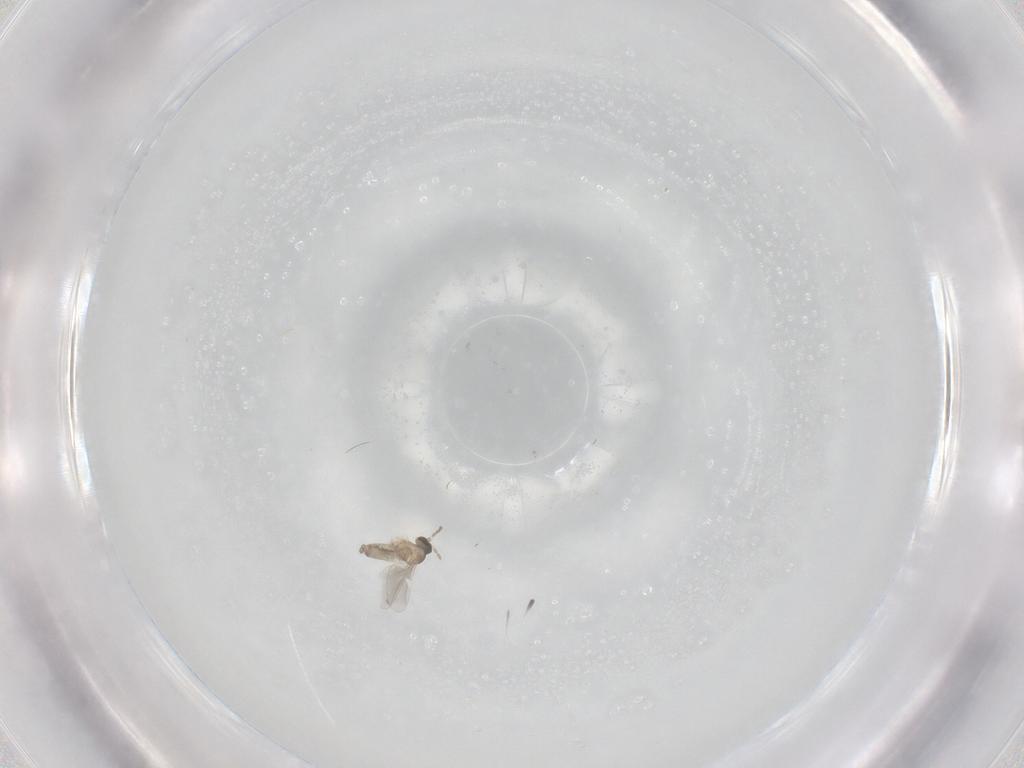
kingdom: Animalia
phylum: Arthropoda
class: Insecta
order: Diptera
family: Cecidomyiidae
